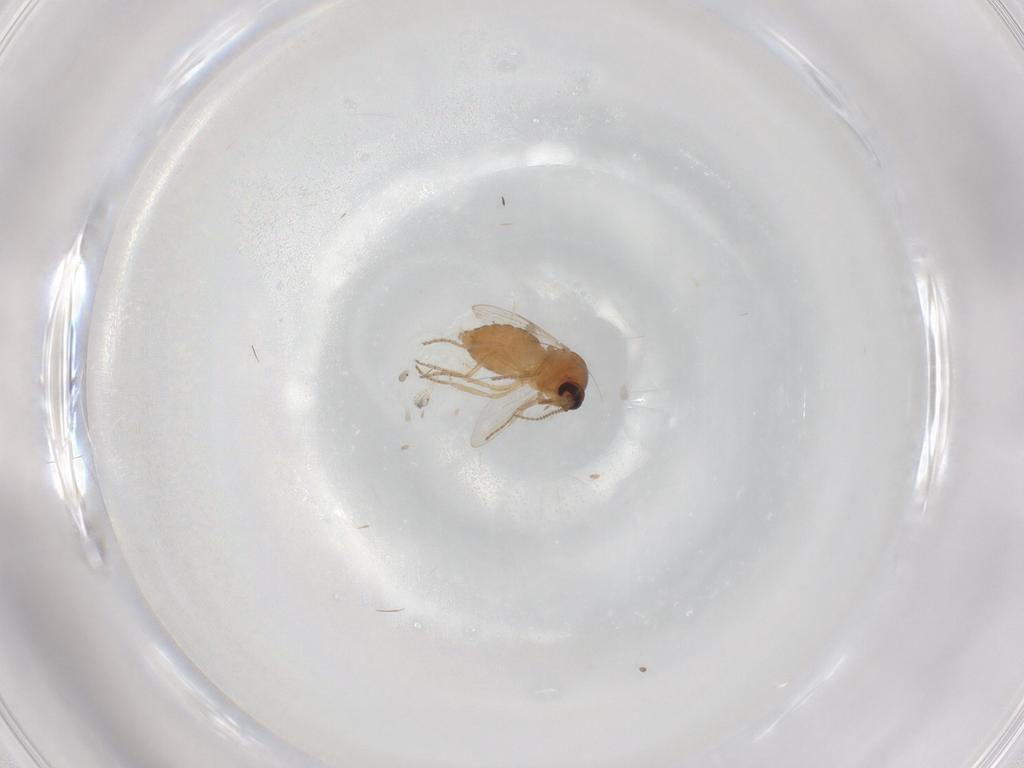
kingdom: Animalia
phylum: Arthropoda
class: Insecta
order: Diptera
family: Ceratopogonidae
